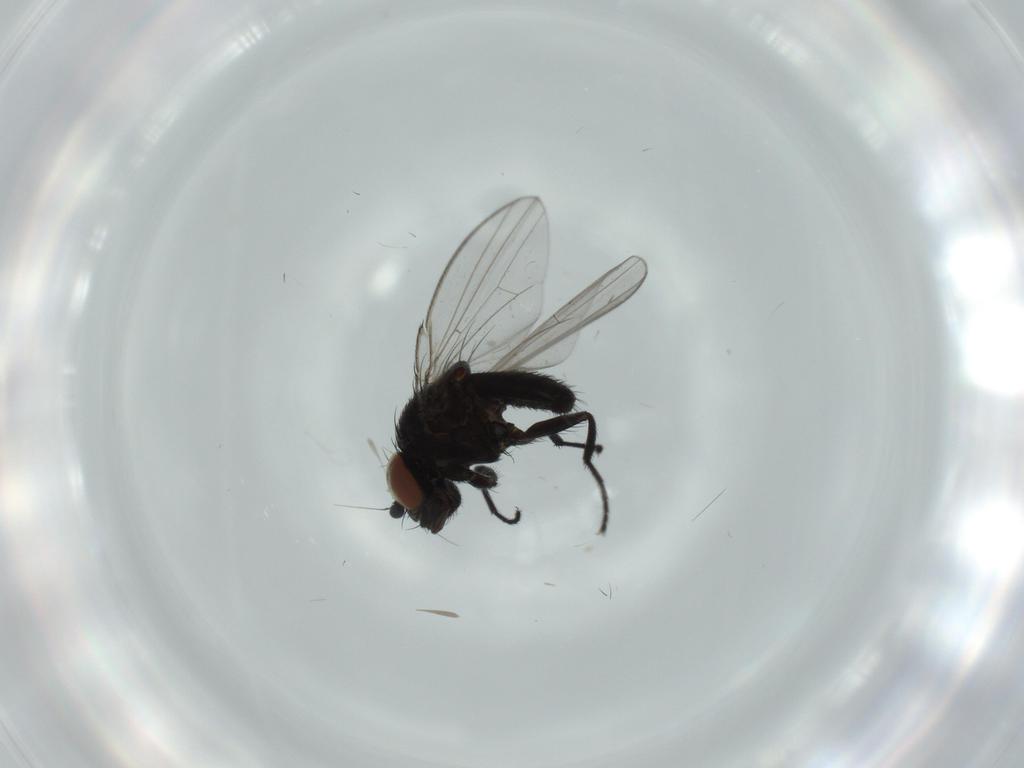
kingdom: Animalia
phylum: Arthropoda
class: Insecta
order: Diptera
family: Milichiidae
